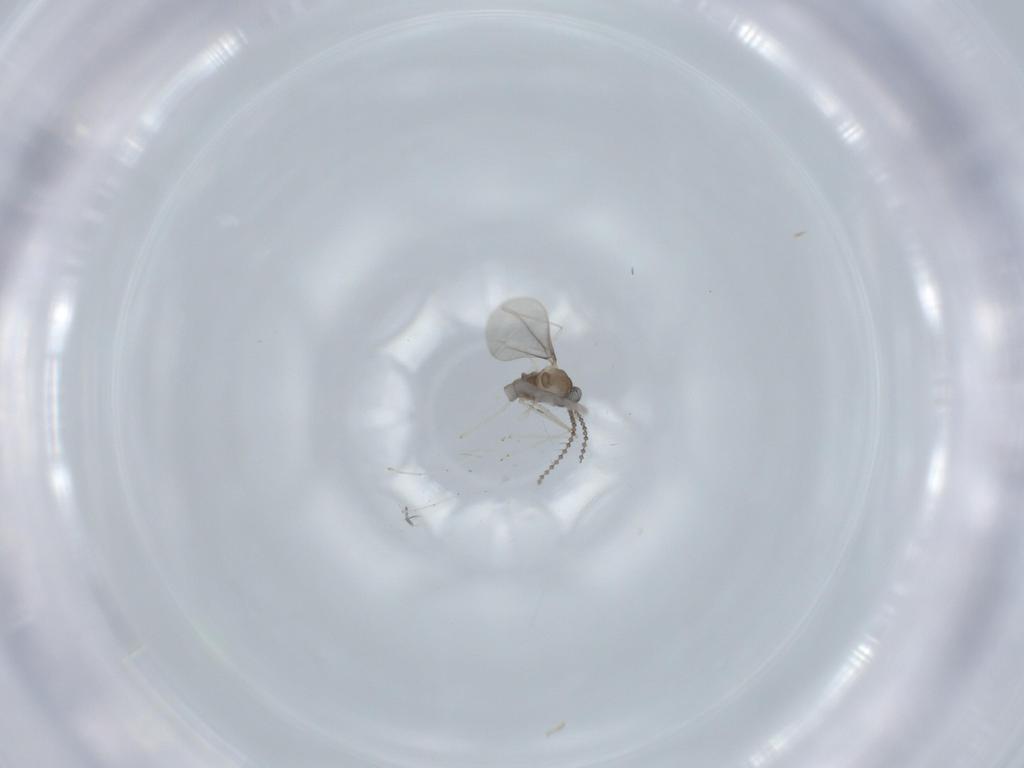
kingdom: Animalia
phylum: Arthropoda
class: Insecta
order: Diptera
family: Cecidomyiidae
